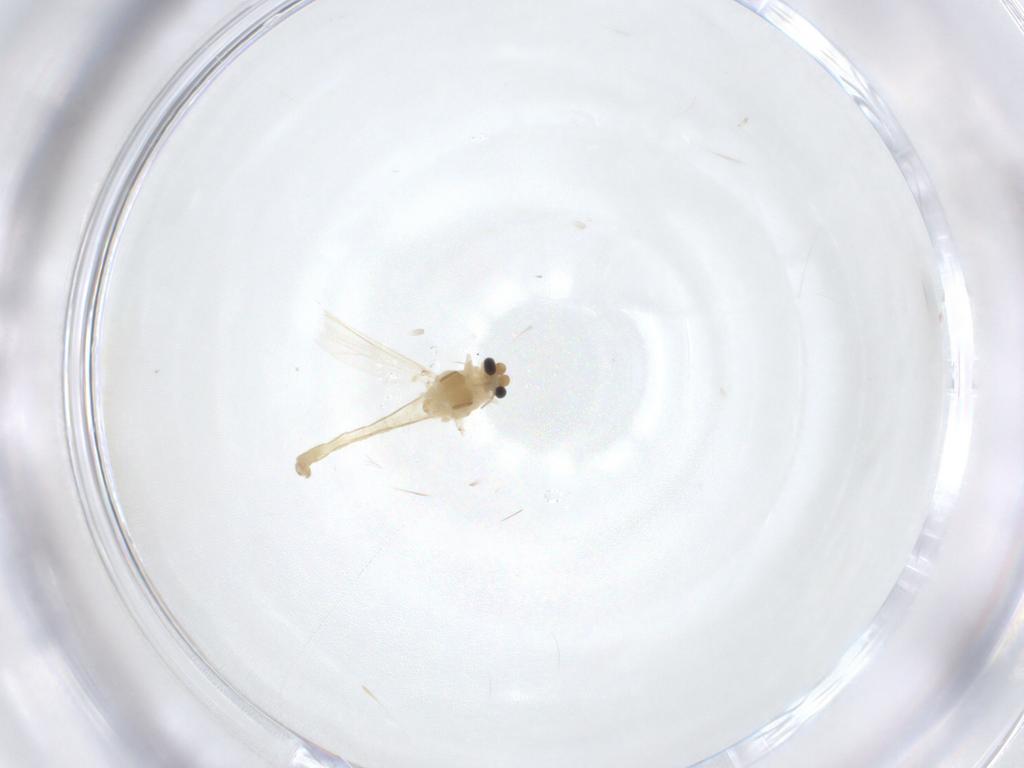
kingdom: Animalia
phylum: Arthropoda
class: Insecta
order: Diptera
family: Chironomidae
